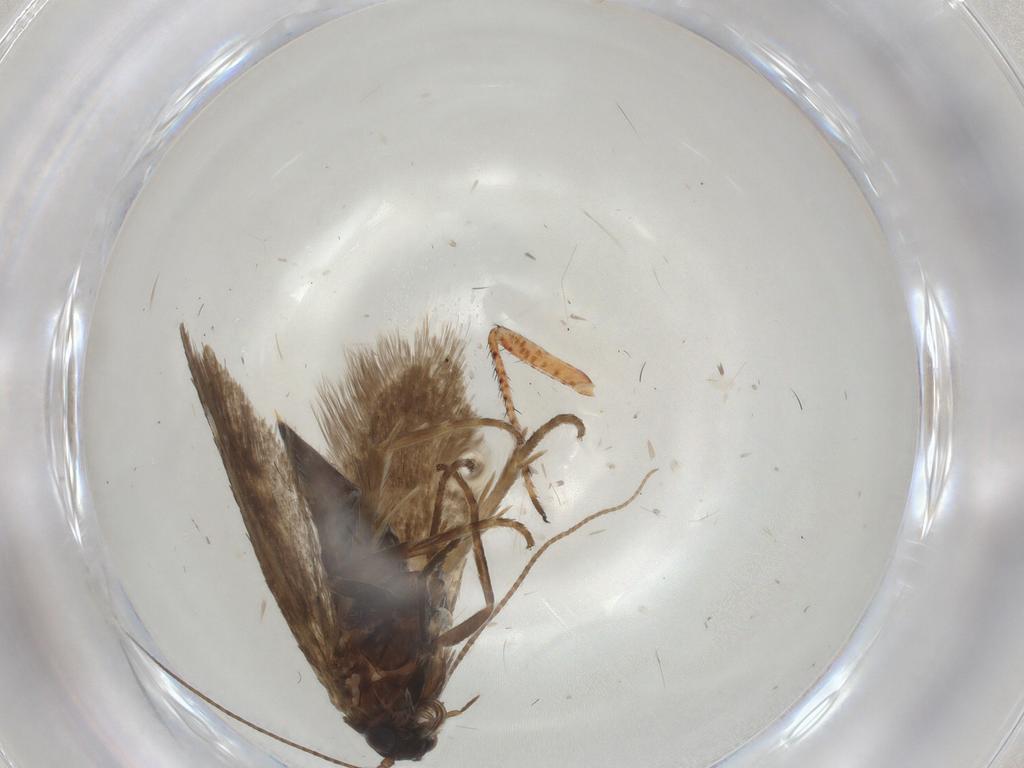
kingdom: Animalia
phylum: Arthropoda
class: Insecta
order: Lepidoptera
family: Adelidae
